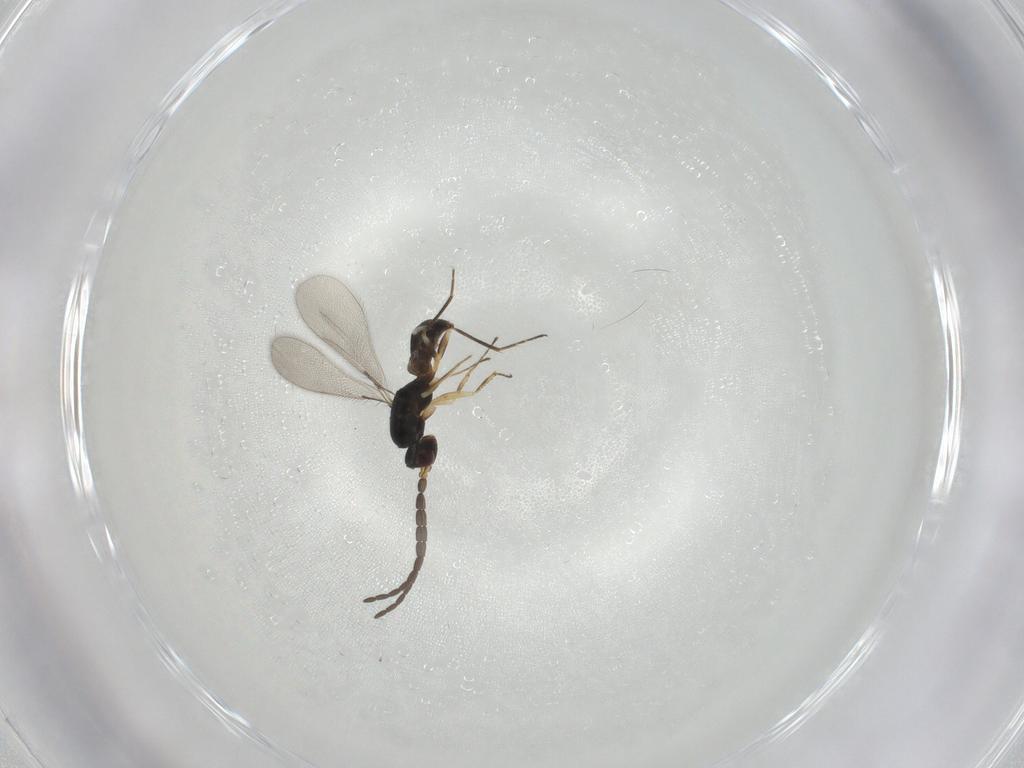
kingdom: Animalia
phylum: Arthropoda
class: Insecta
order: Hymenoptera
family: Mymaridae
